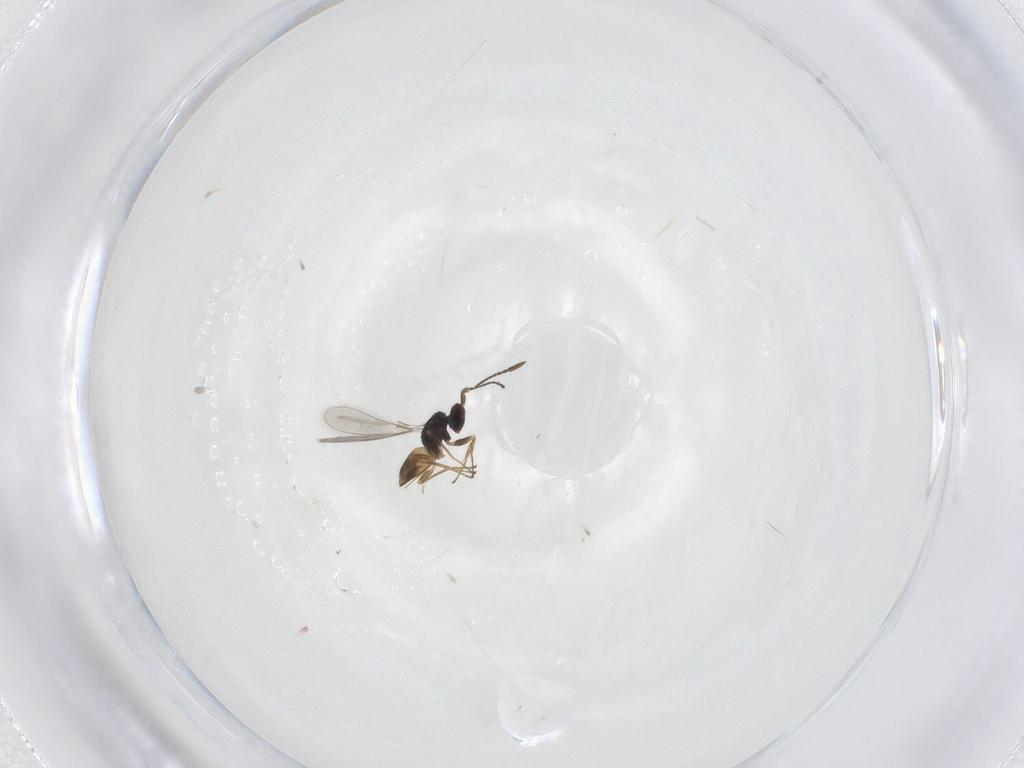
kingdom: Animalia
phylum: Arthropoda
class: Insecta
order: Hymenoptera
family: Mymaridae
